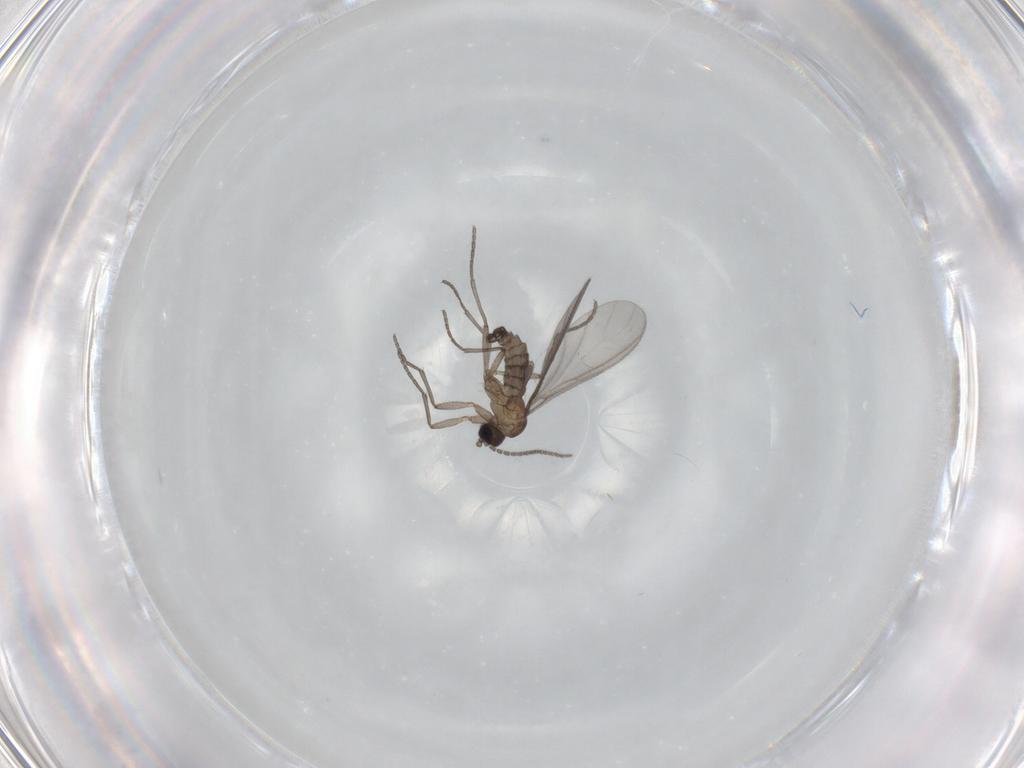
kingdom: Animalia
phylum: Arthropoda
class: Insecta
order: Diptera
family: Sciaridae
